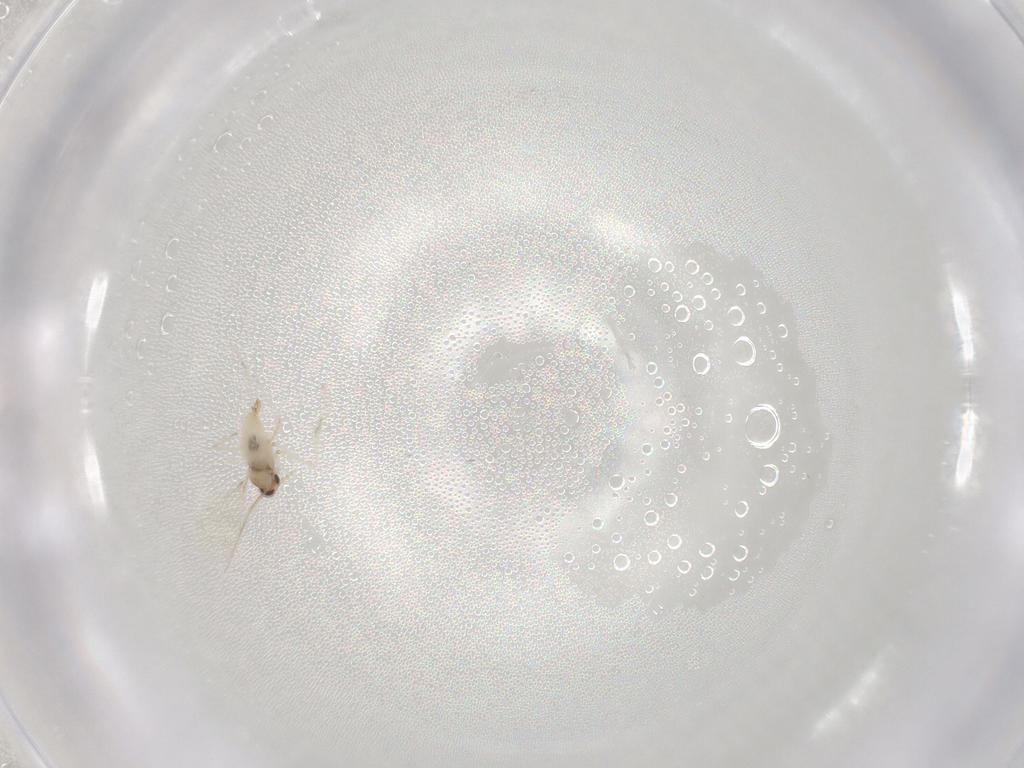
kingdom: Animalia
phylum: Arthropoda
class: Insecta
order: Diptera
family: Cecidomyiidae
